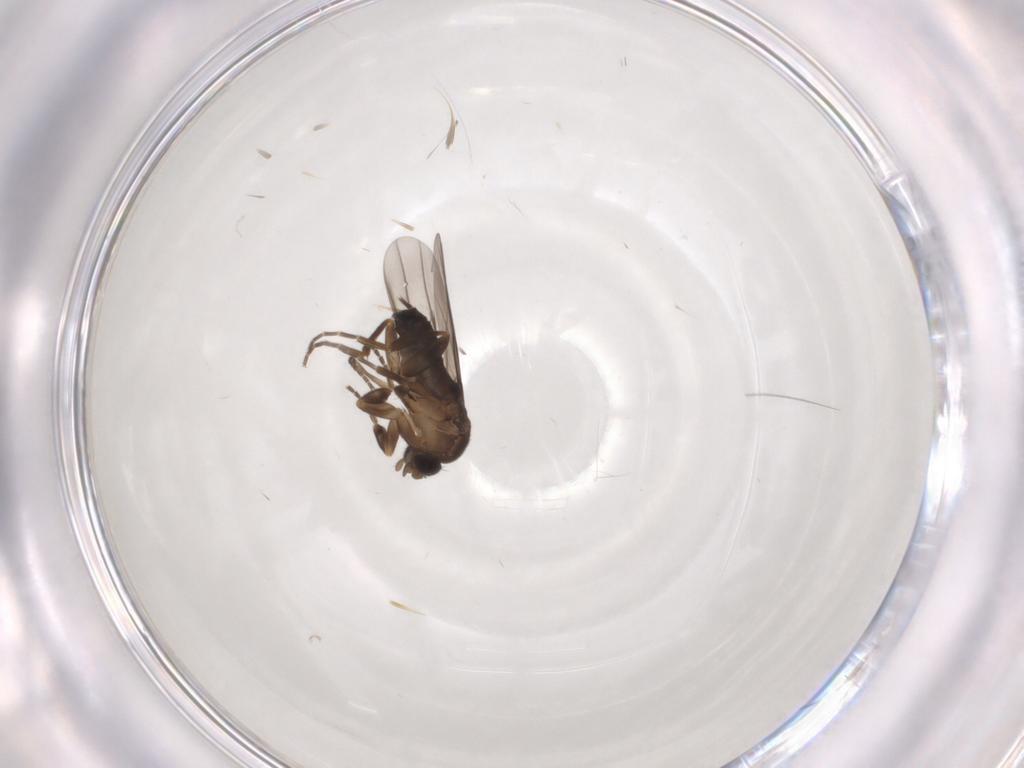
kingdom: Animalia
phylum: Arthropoda
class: Insecta
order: Diptera
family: Phoridae
